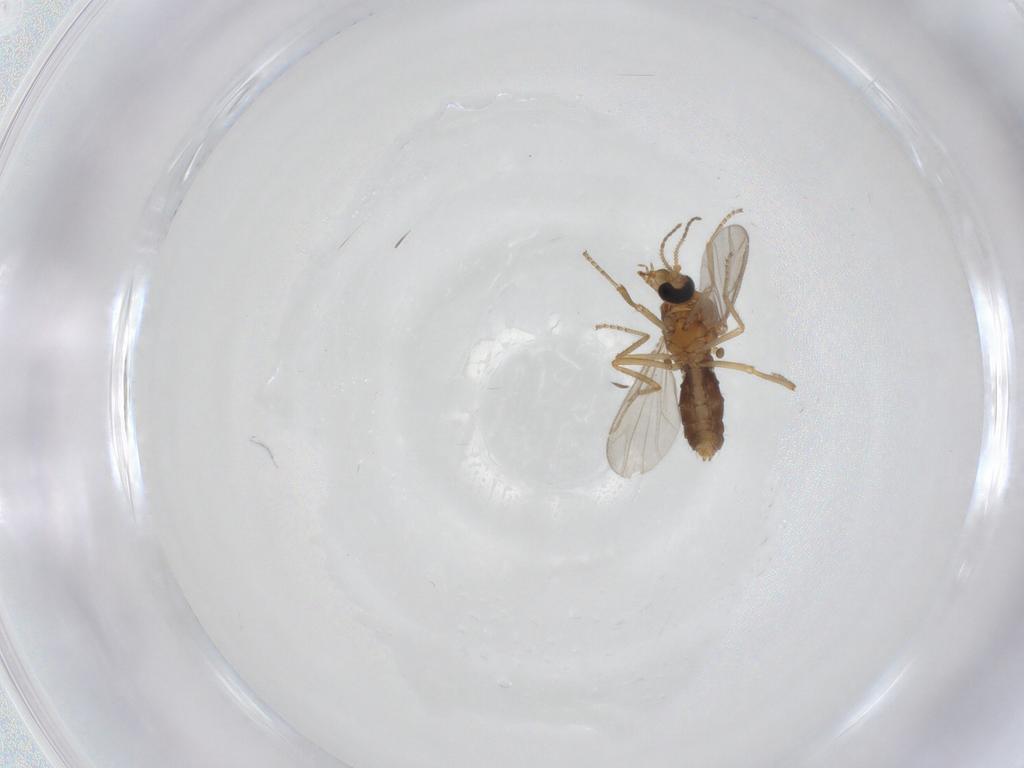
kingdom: Animalia
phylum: Arthropoda
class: Insecta
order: Diptera
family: Ceratopogonidae
